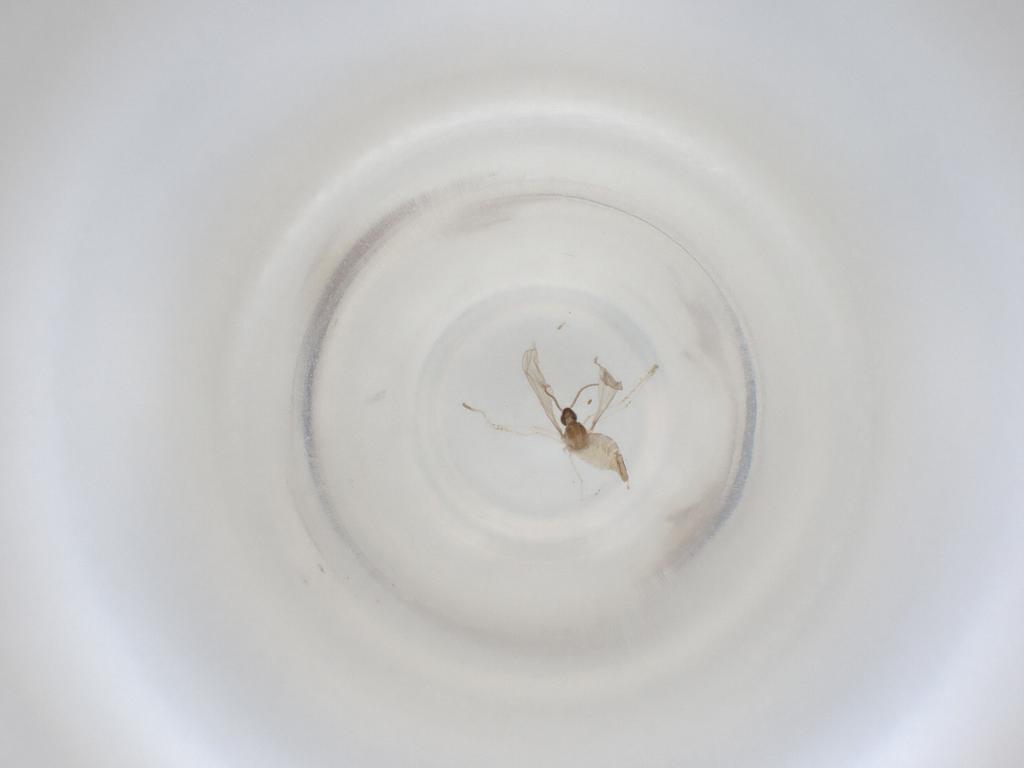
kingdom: Animalia
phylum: Arthropoda
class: Insecta
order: Diptera
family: Cecidomyiidae
